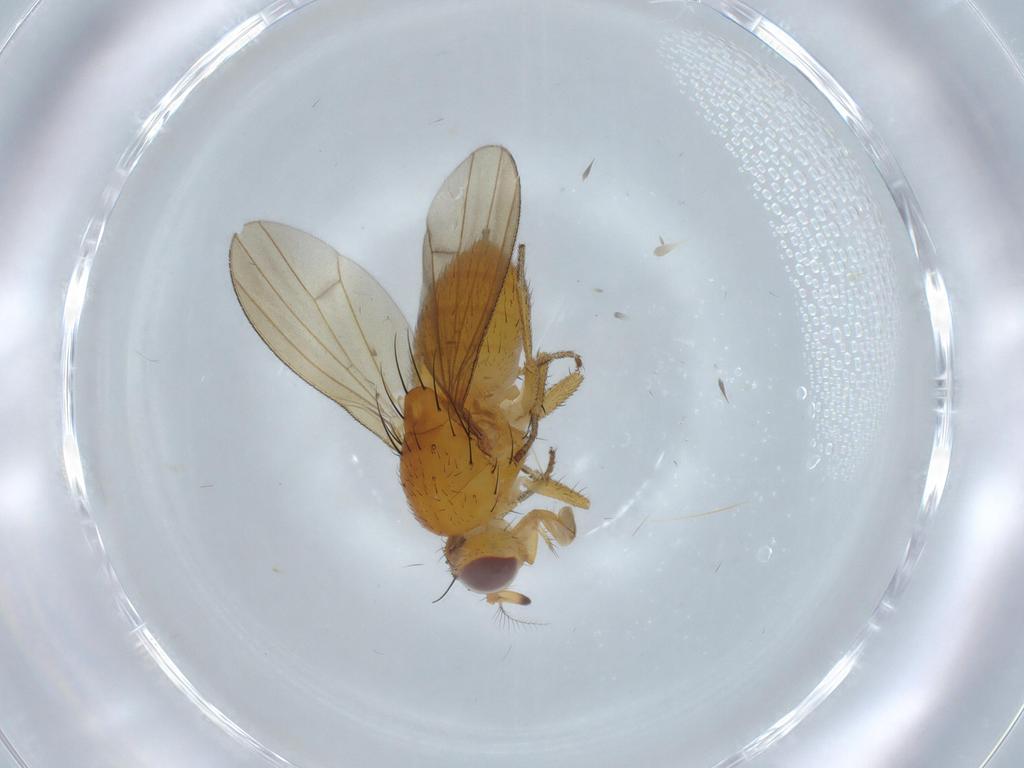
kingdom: Animalia
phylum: Arthropoda
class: Insecta
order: Diptera
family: Lauxaniidae
